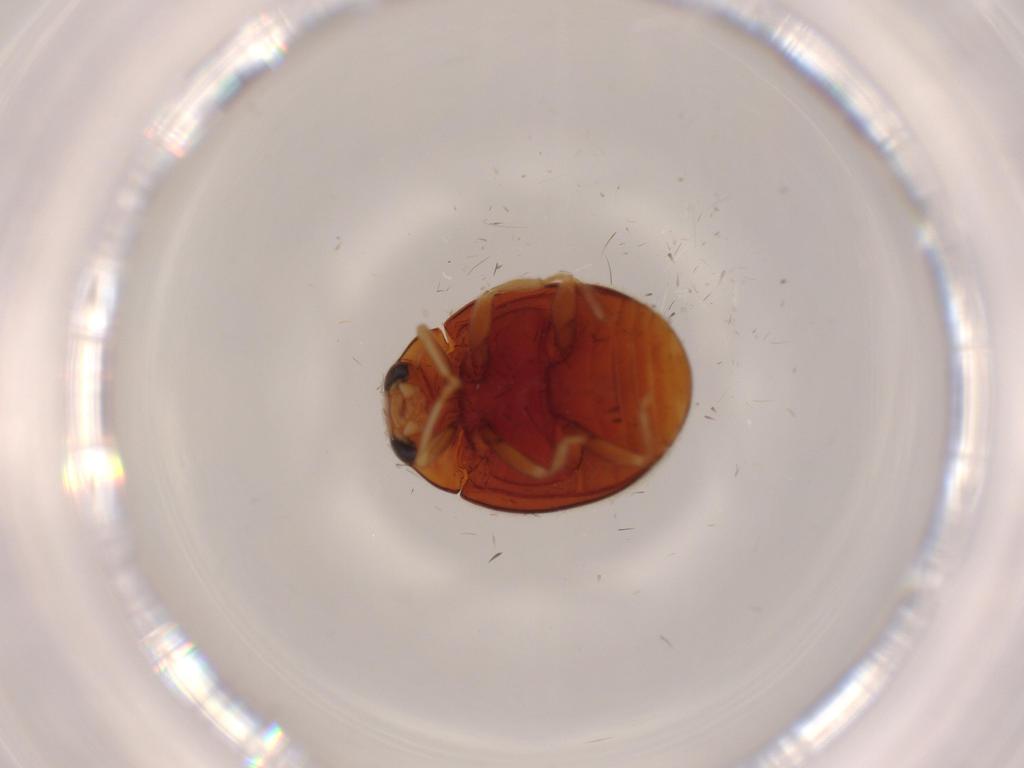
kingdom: Animalia
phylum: Arthropoda
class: Insecta
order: Coleoptera
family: Coccinellidae
